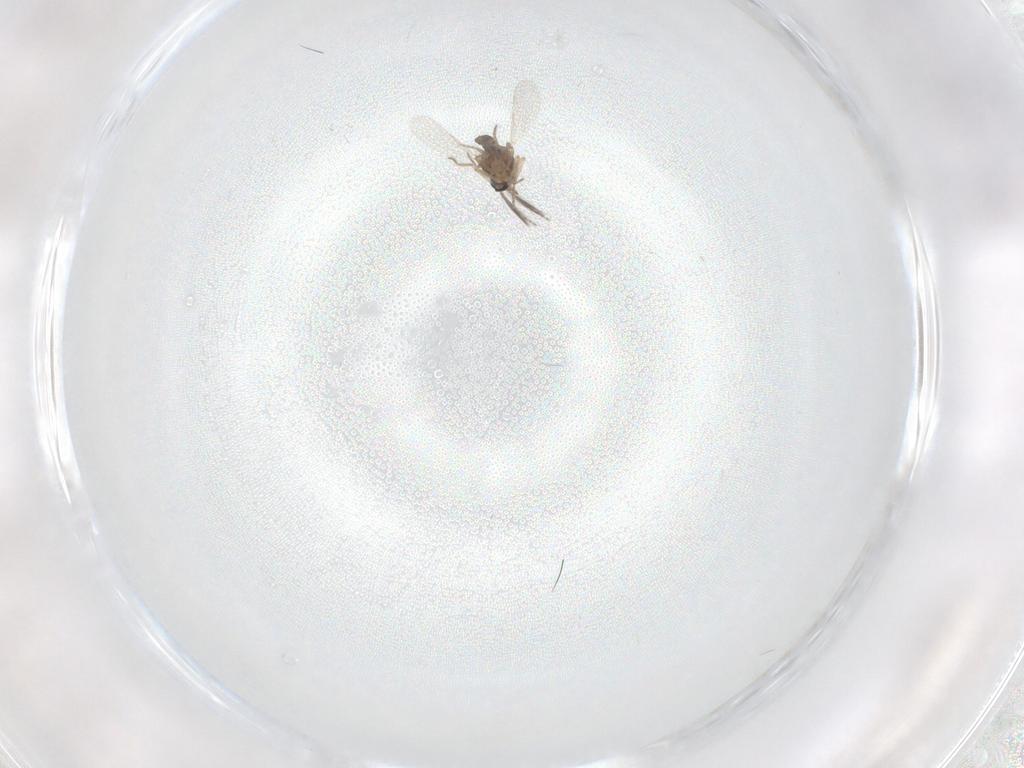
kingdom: Animalia
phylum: Arthropoda
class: Insecta
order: Diptera
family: Ceratopogonidae
